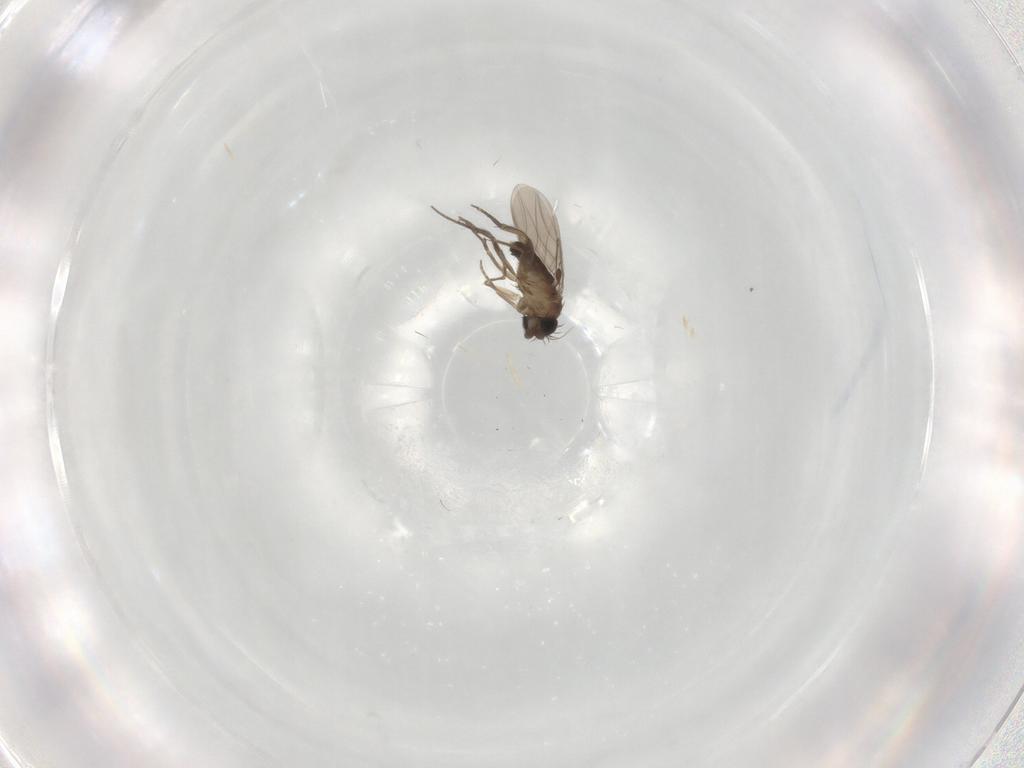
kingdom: Animalia
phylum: Arthropoda
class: Insecta
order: Diptera
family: Phoridae
